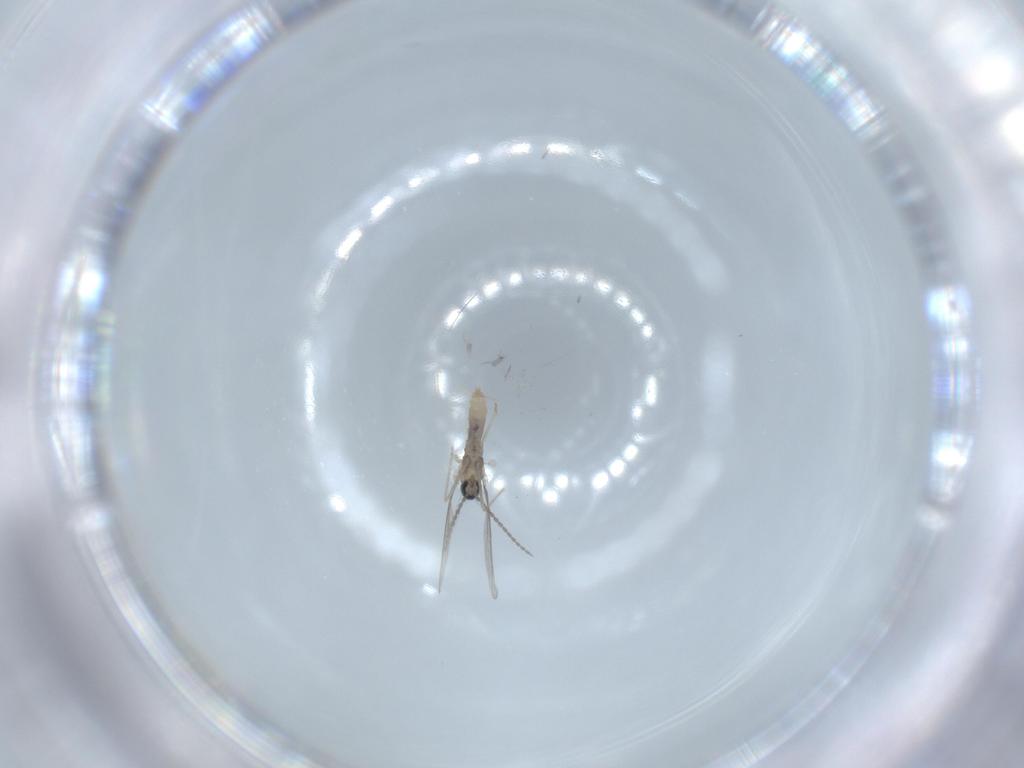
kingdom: Animalia
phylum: Arthropoda
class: Insecta
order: Diptera
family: Cecidomyiidae
